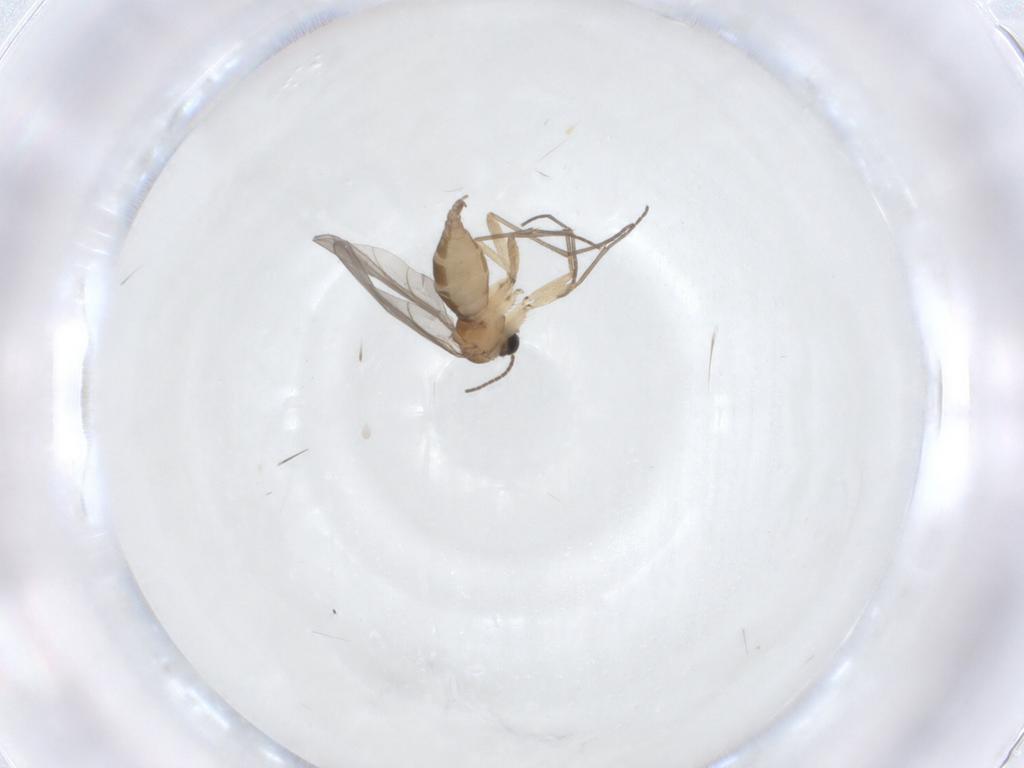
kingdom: Animalia
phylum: Arthropoda
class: Insecta
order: Diptera
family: Sciaridae
